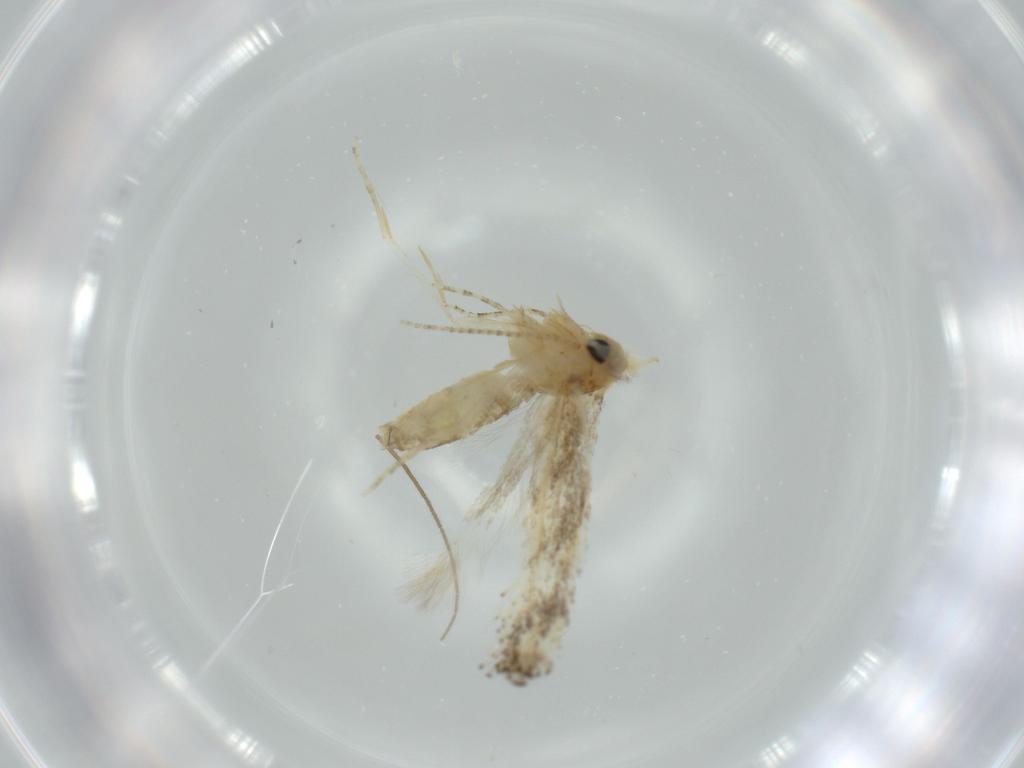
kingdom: Animalia
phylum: Arthropoda
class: Insecta
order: Lepidoptera
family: Bucculatricidae
